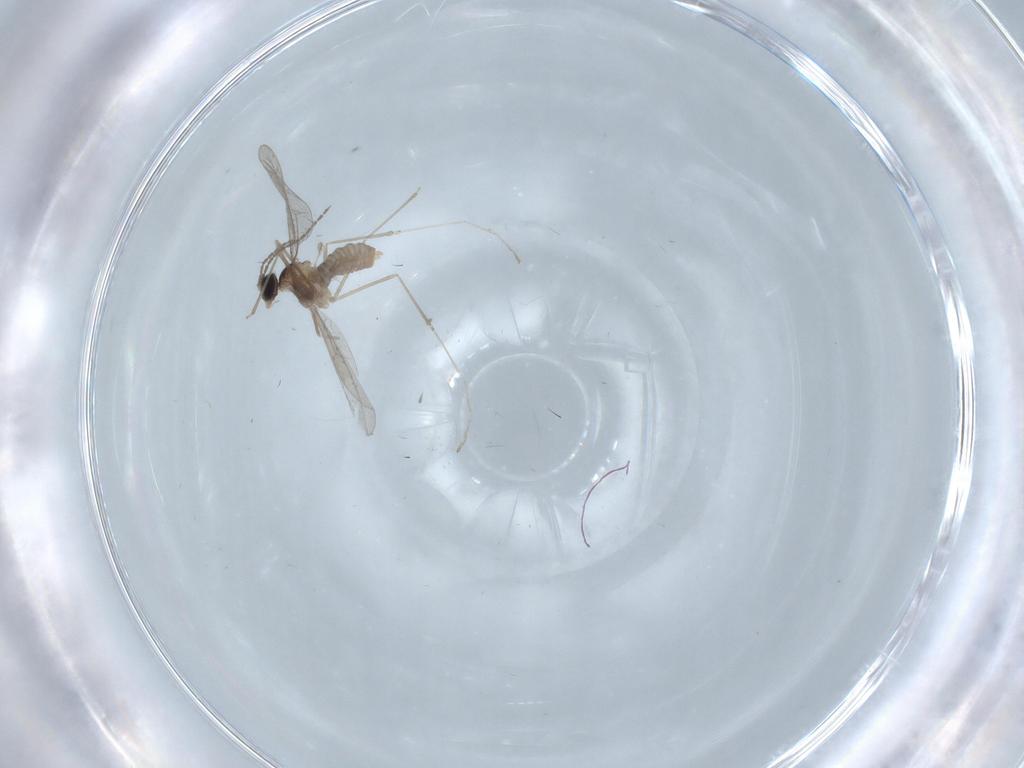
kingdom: Animalia
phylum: Arthropoda
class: Insecta
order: Diptera
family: Cecidomyiidae
